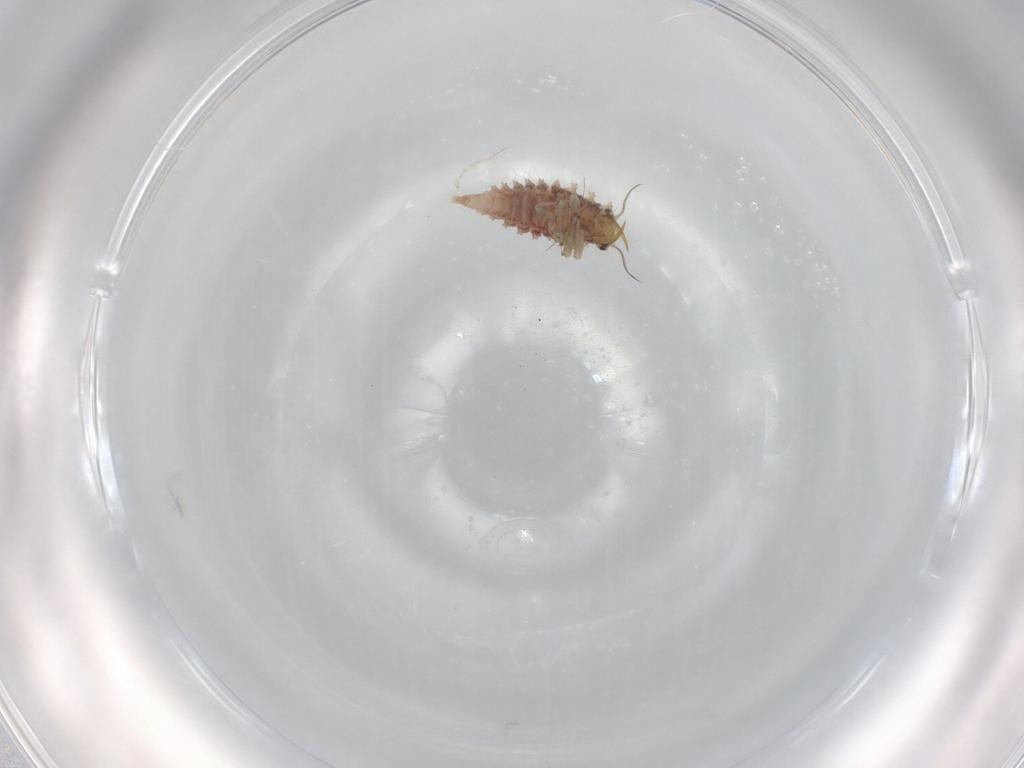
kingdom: Animalia
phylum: Arthropoda
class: Insecta
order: Neuroptera
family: Chrysopidae
